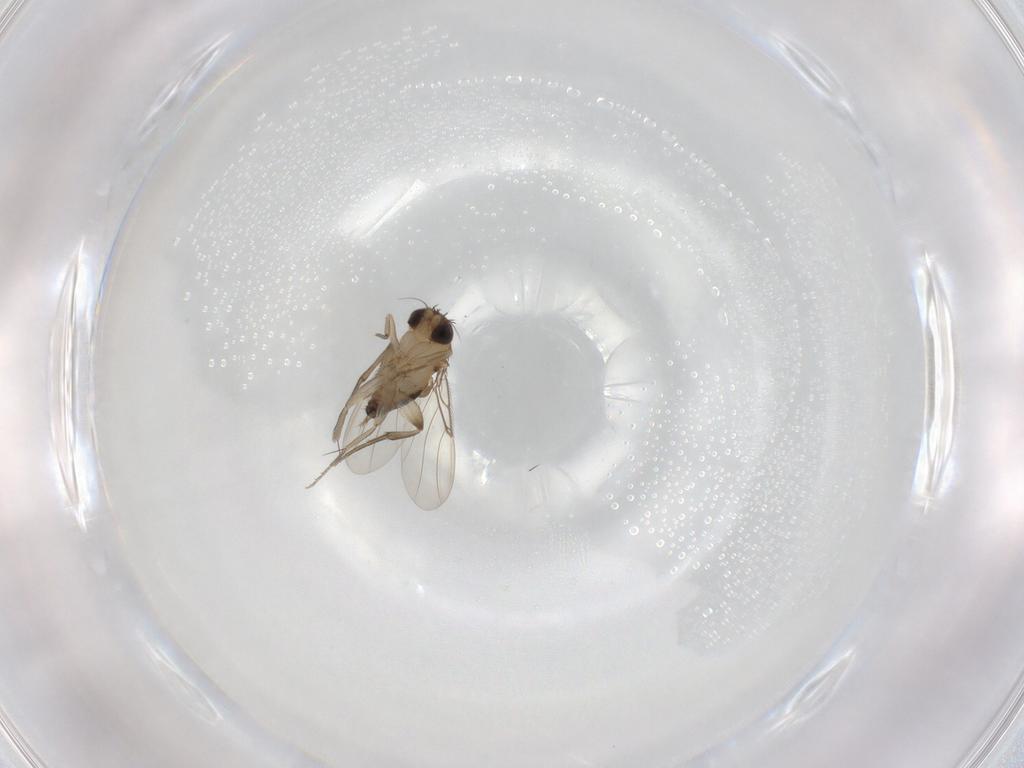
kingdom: Animalia
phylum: Arthropoda
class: Insecta
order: Diptera
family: Phoridae
